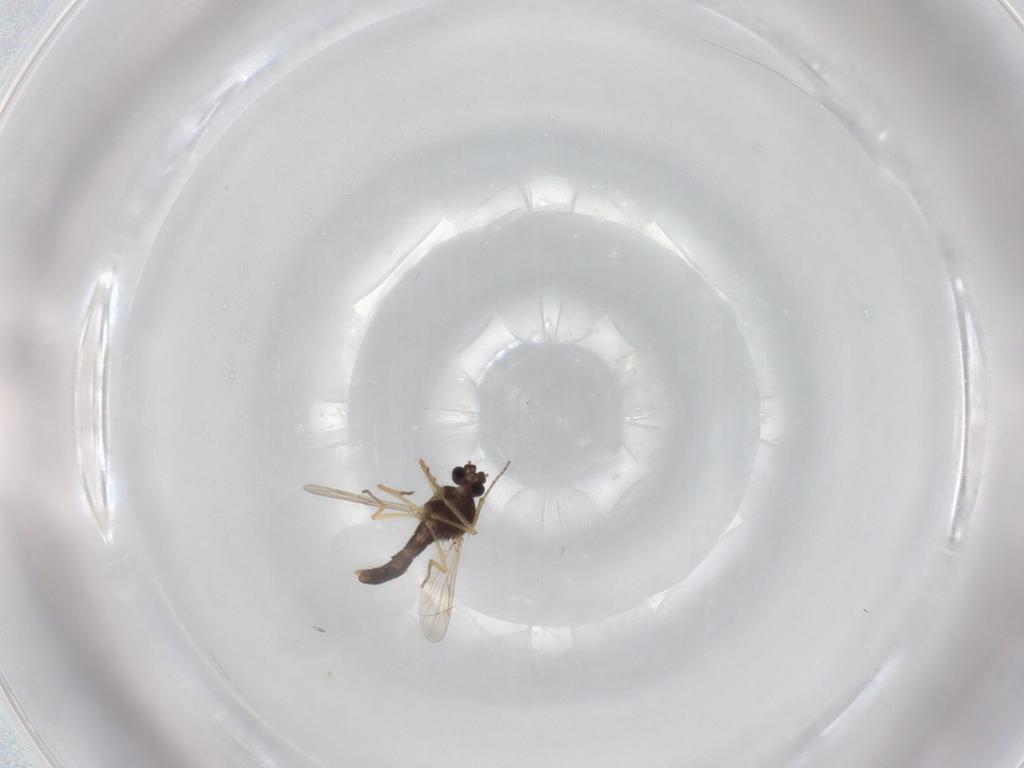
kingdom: Animalia
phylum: Arthropoda
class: Insecta
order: Diptera
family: Ceratopogonidae
